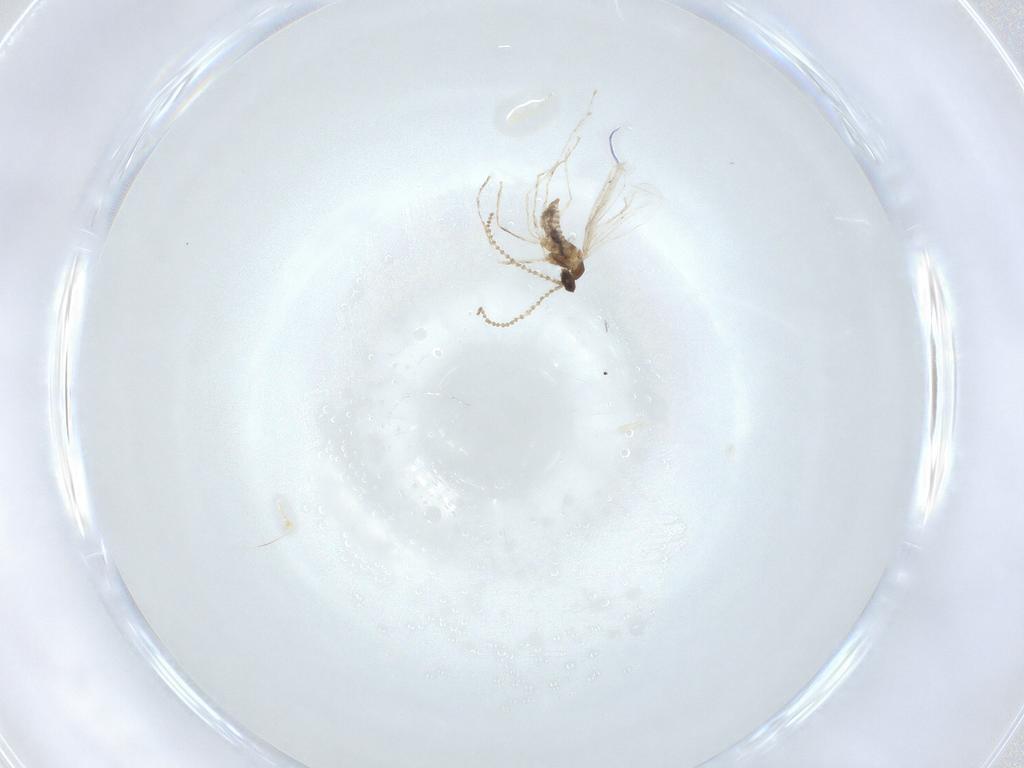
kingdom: Animalia
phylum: Arthropoda
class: Insecta
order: Diptera
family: Cecidomyiidae
